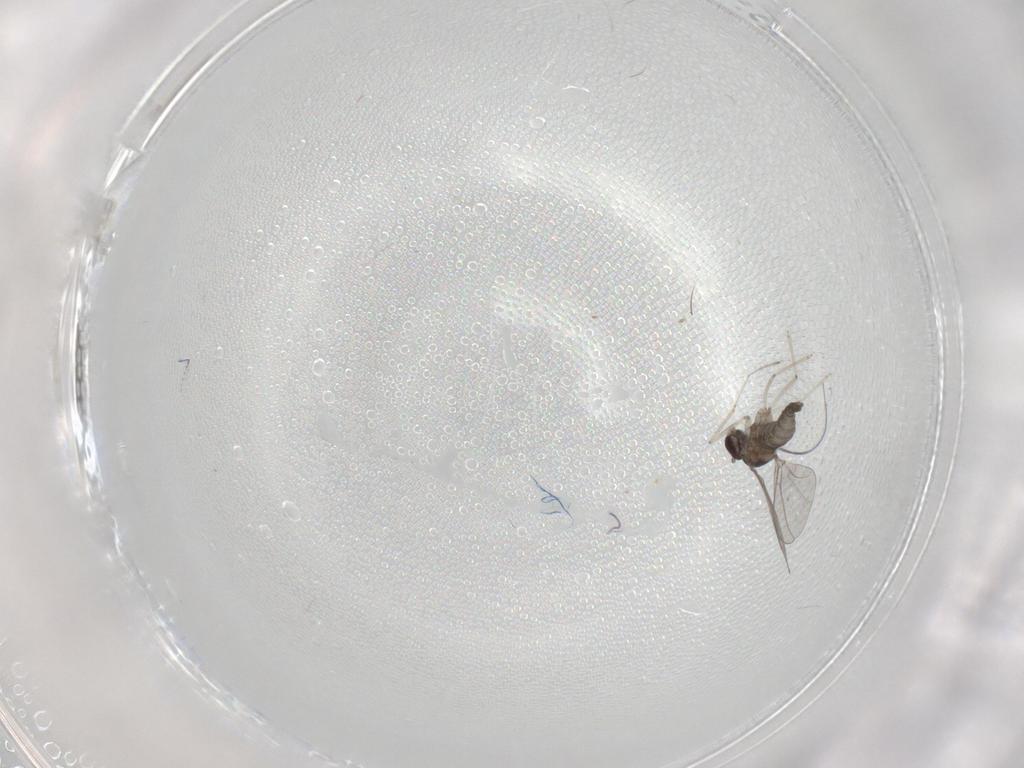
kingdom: Animalia
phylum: Arthropoda
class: Insecta
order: Diptera
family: Cecidomyiidae
